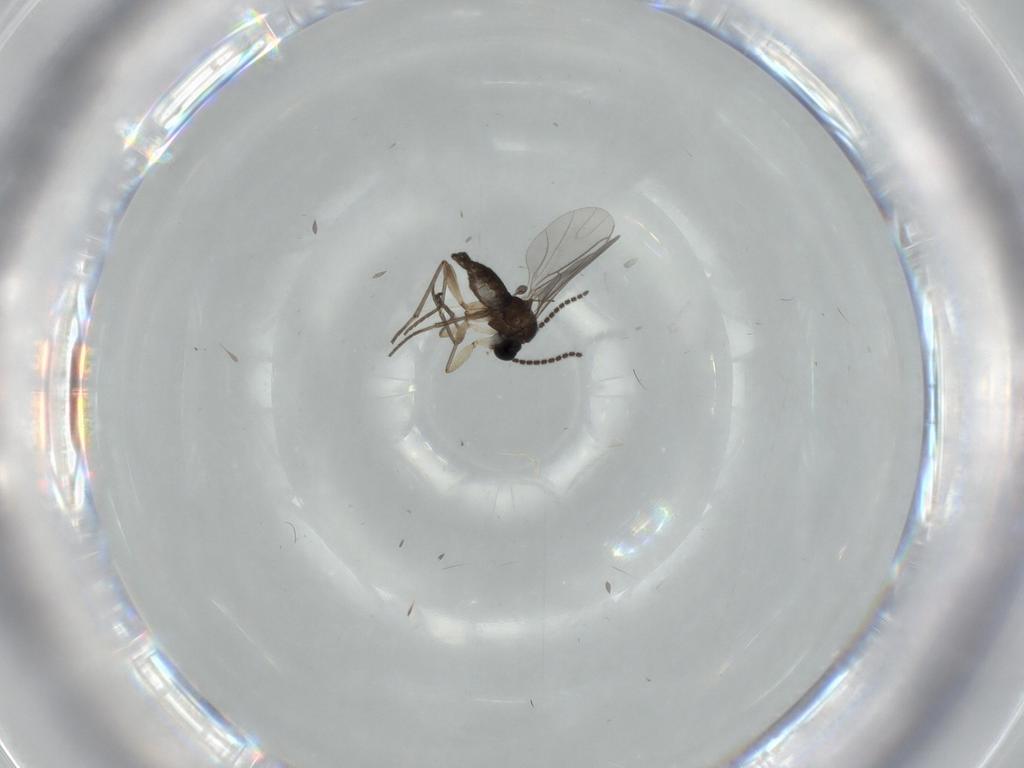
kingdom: Animalia
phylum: Arthropoda
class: Insecta
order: Diptera
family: Sciaridae
